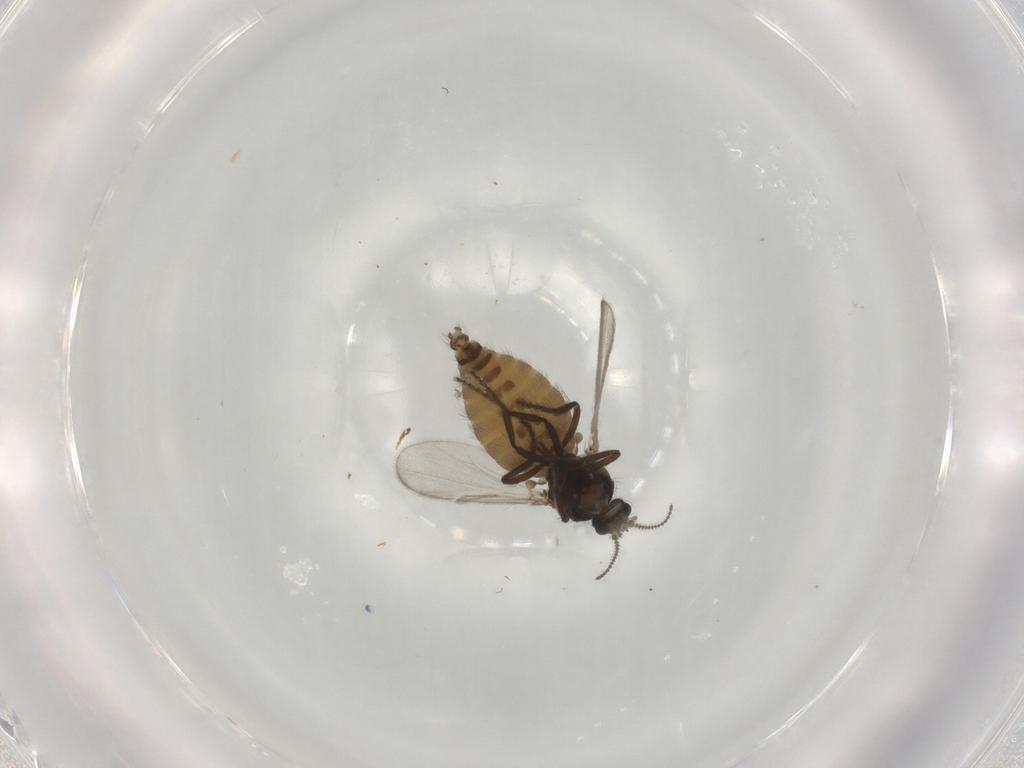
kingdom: Animalia
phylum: Arthropoda
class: Insecta
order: Diptera
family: Ceratopogonidae
